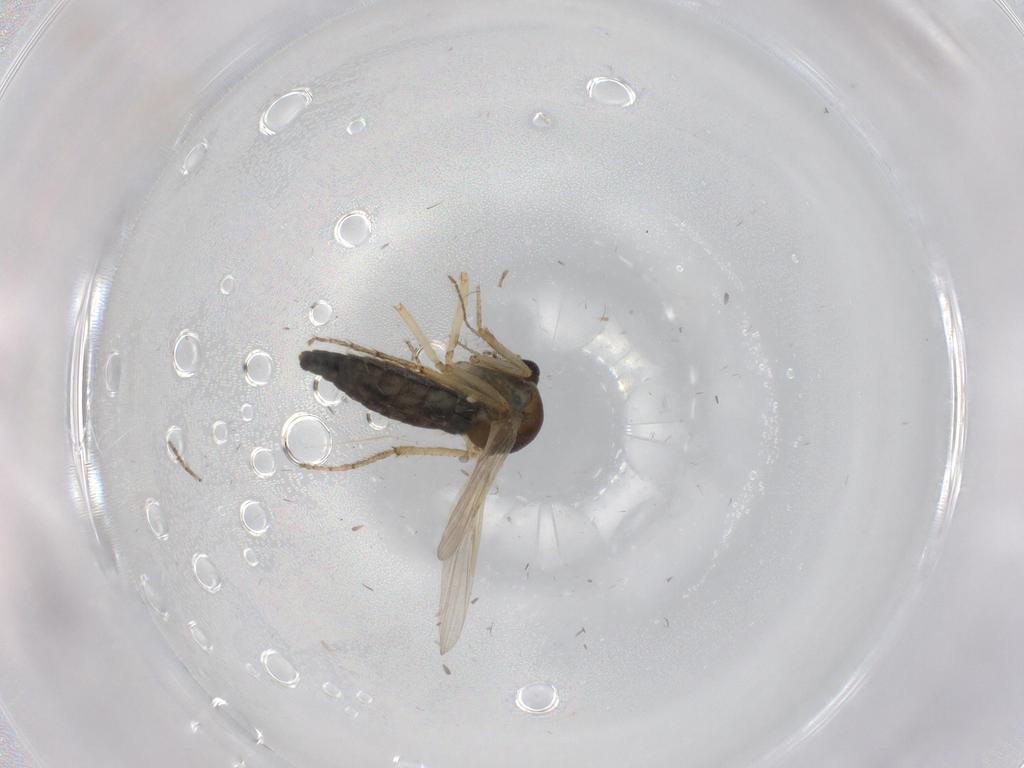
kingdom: Animalia
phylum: Arthropoda
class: Insecta
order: Diptera
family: Ceratopogonidae
